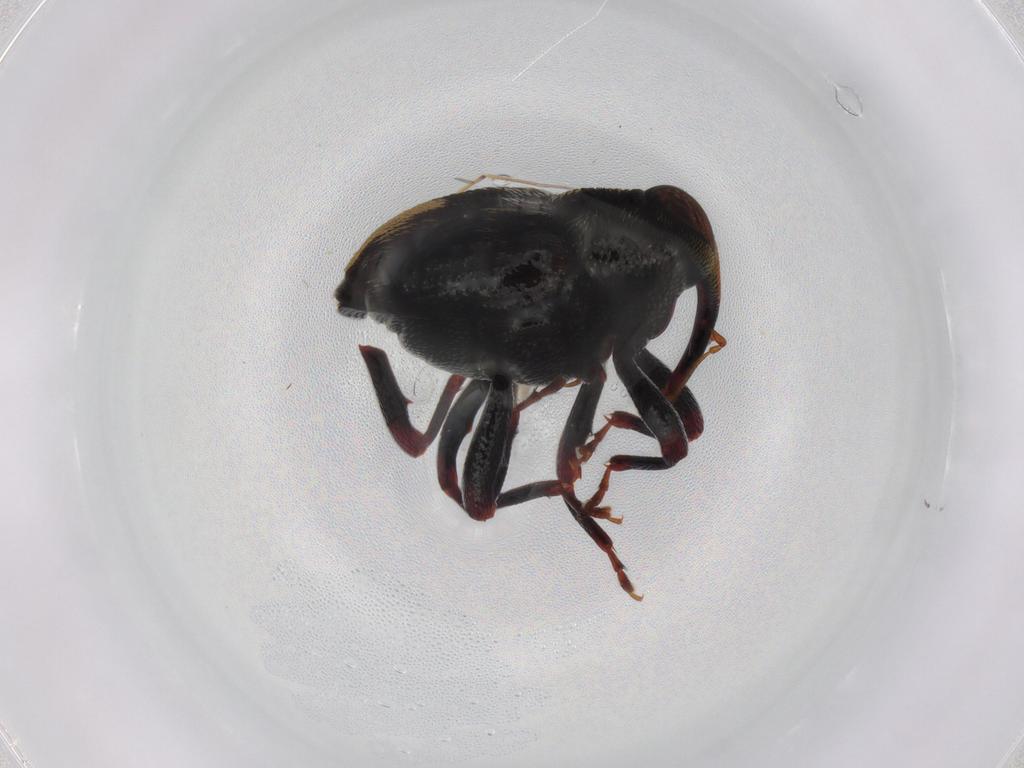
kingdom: Animalia
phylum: Arthropoda
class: Insecta
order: Coleoptera
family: Curculionidae
